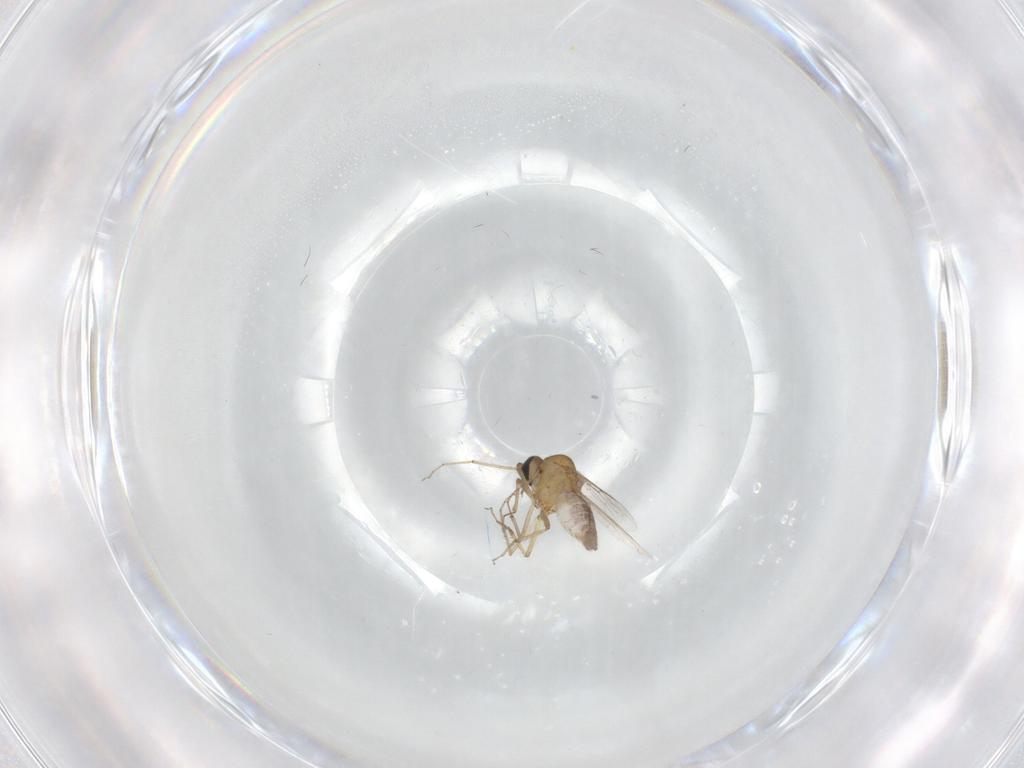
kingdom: Animalia
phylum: Arthropoda
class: Insecta
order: Diptera
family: Ceratopogonidae
